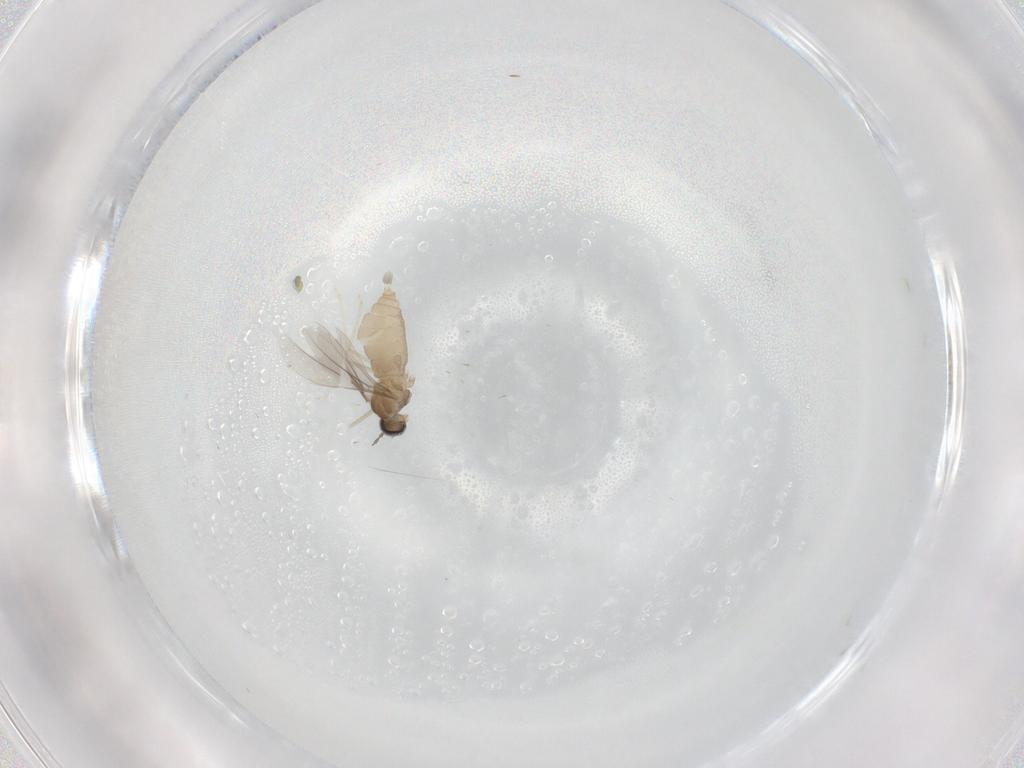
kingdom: Animalia
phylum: Arthropoda
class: Insecta
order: Diptera
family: Cecidomyiidae
